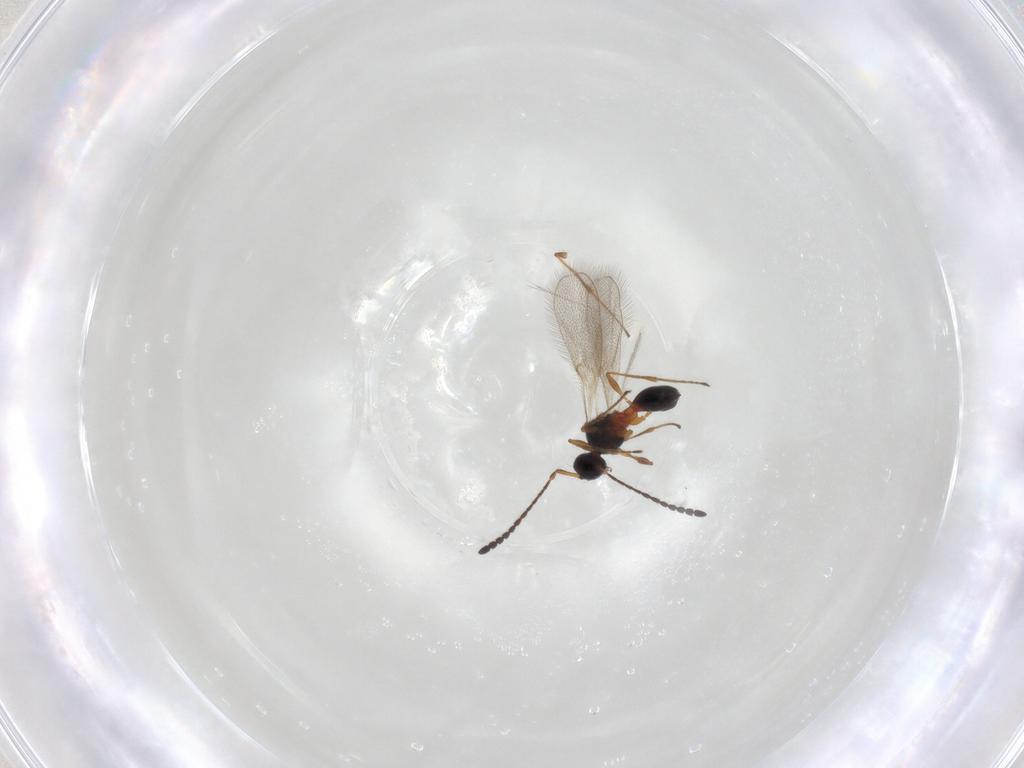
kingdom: Animalia
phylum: Arthropoda
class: Insecta
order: Hymenoptera
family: Diapriidae
